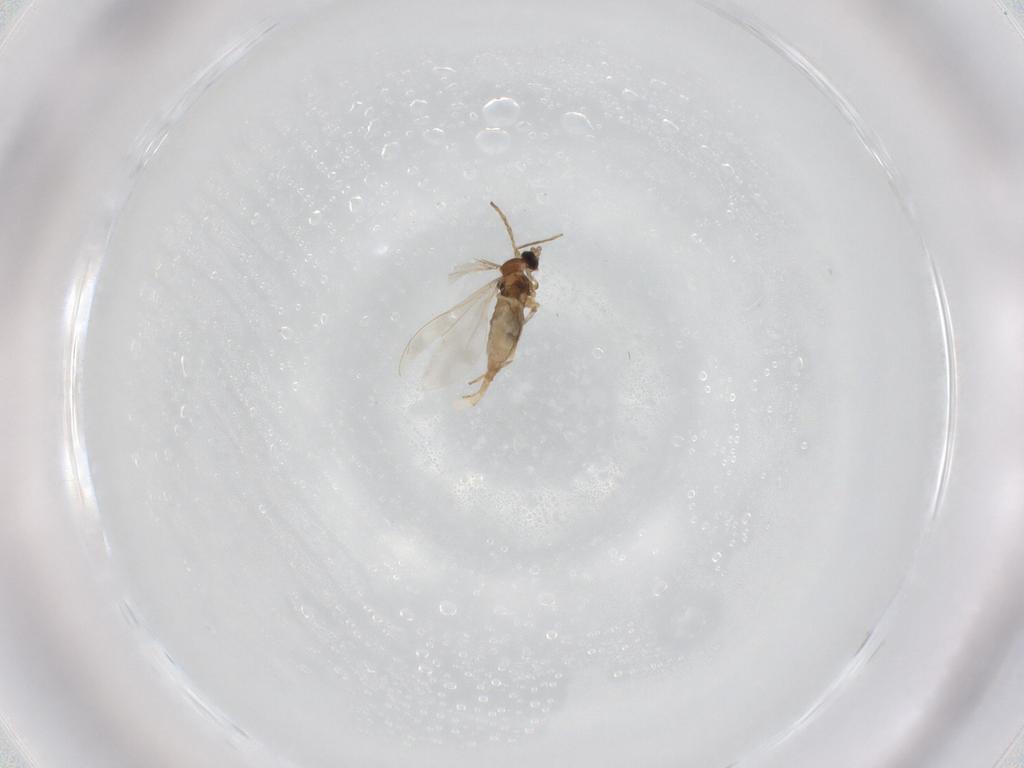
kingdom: Animalia
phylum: Arthropoda
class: Insecta
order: Diptera
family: Cecidomyiidae
